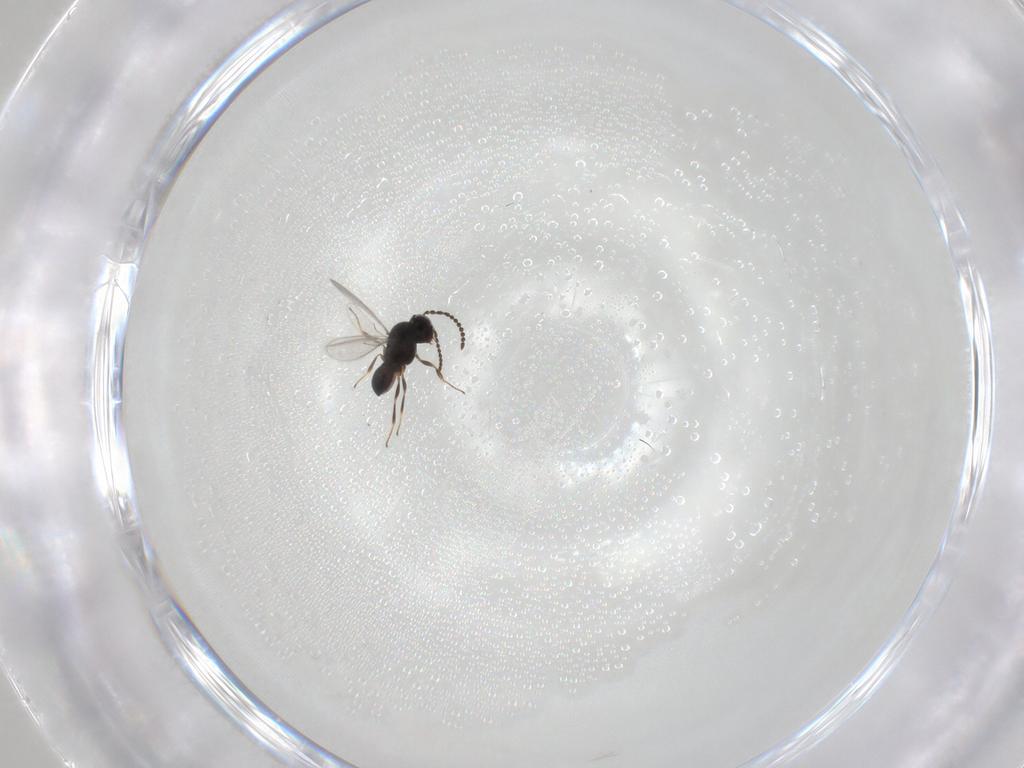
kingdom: Animalia
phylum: Arthropoda
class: Insecta
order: Hymenoptera
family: Scelionidae
